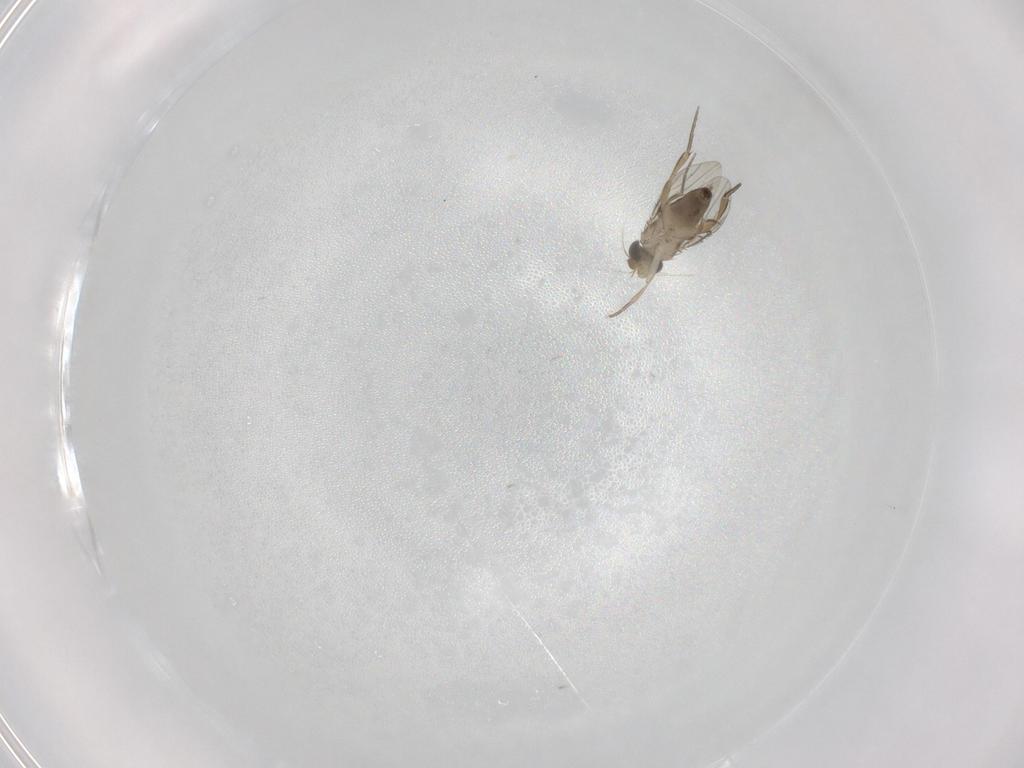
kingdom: Animalia
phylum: Arthropoda
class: Insecta
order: Diptera
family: Phoridae
